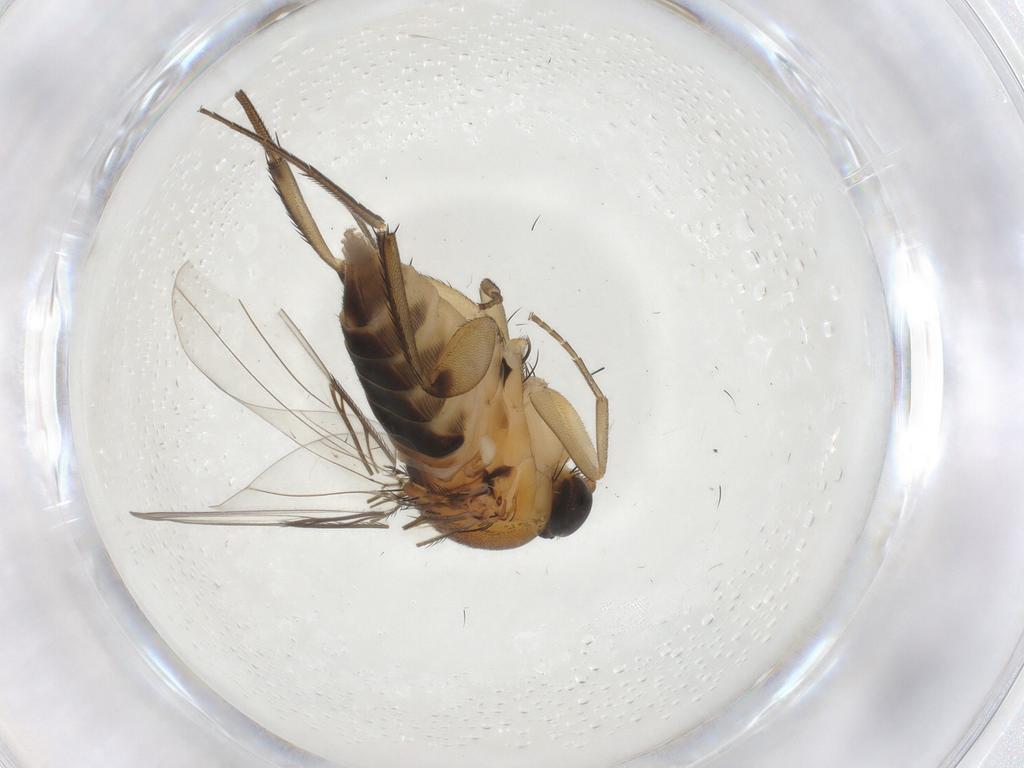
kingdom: Animalia
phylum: Arthropoda
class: Insecta
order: Diptera
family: Phoridae
